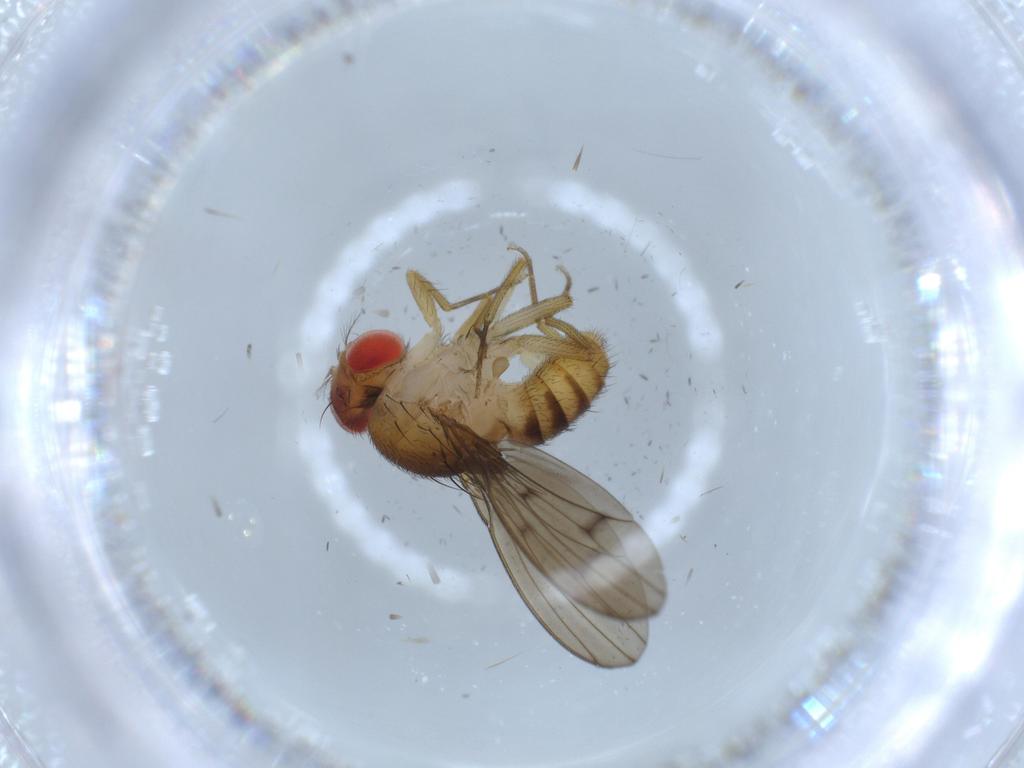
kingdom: Animalia
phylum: Arthropoda
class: Insecta
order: Diptera
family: Drosophilidae
